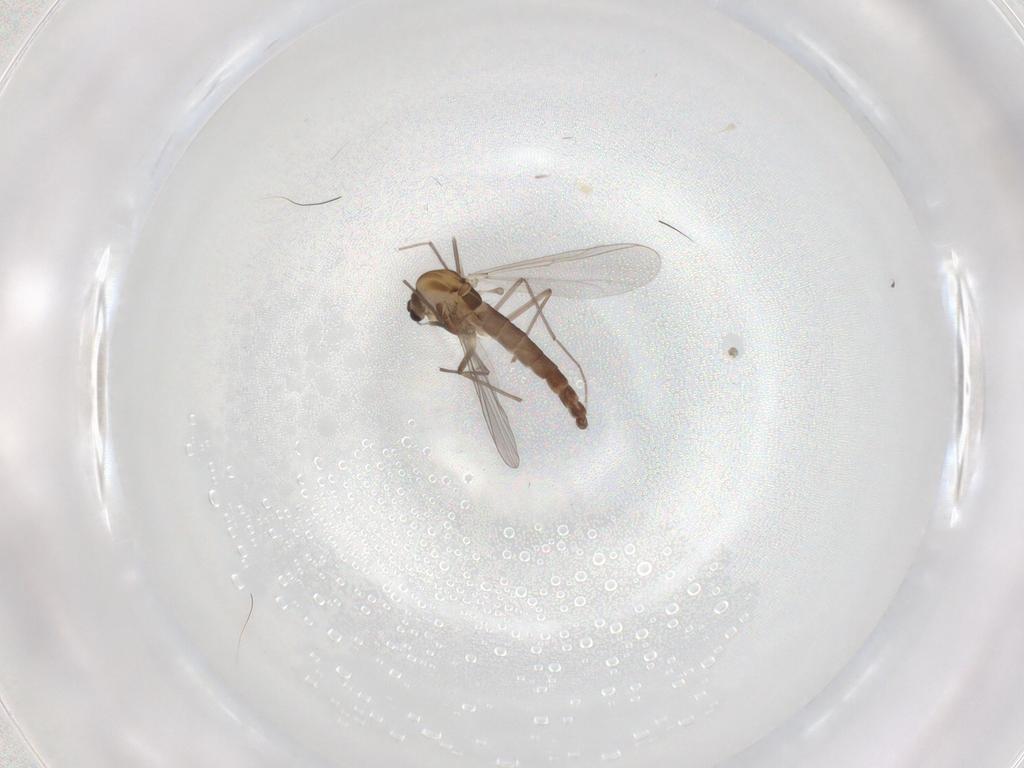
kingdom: Animalia
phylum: Arthropoda
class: Insecta
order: Diptera
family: Chironomidae
